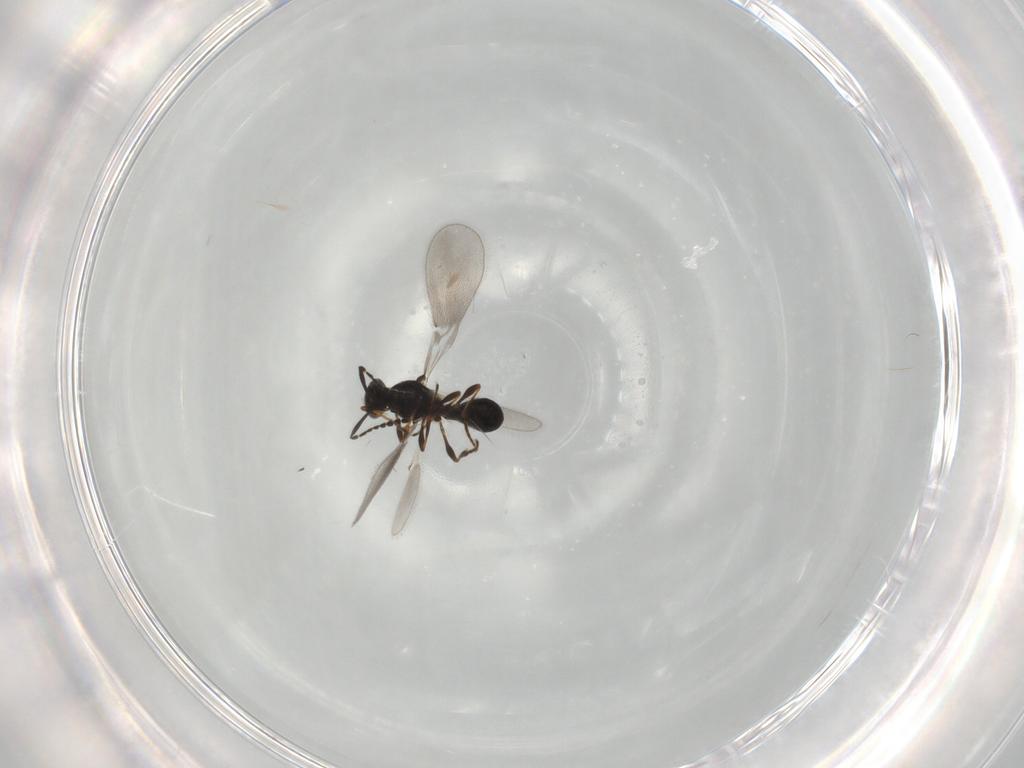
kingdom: Animalia
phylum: Arthropoda
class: Insecta
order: Hymenoptera
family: Platygastridae
